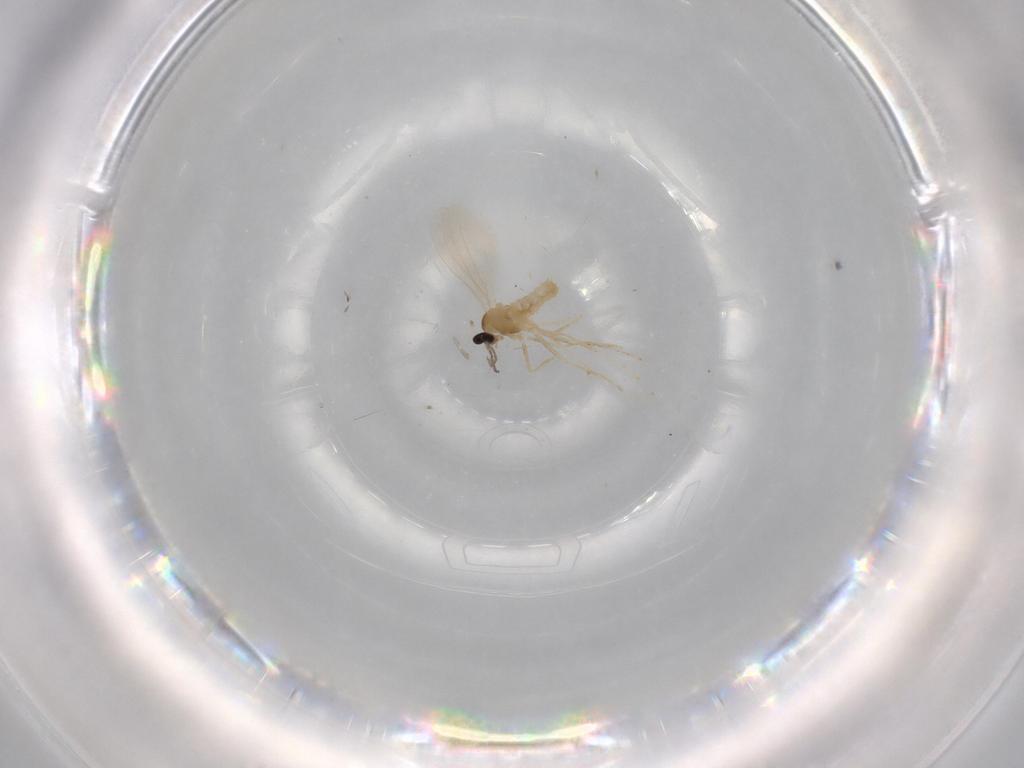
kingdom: Animalia
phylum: Arthropoda
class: Insecta
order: Diptera
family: Cecidomyiidae
